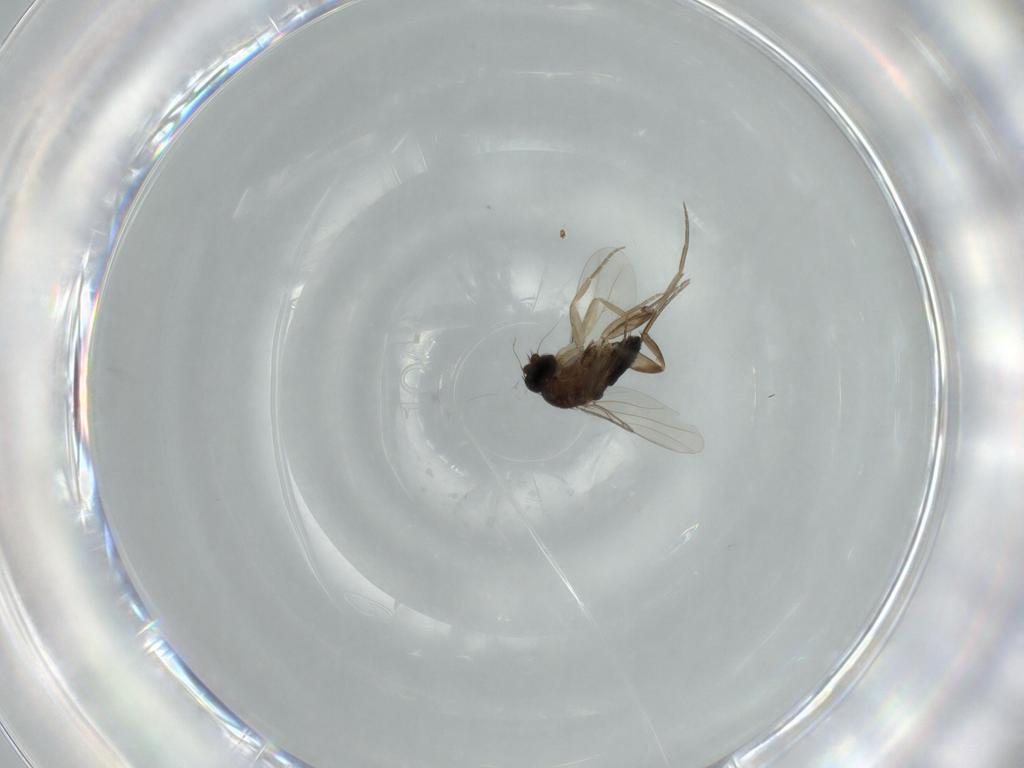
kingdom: Animalia
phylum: Arthropoda
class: Insecta
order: Diptera
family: Phoridae
